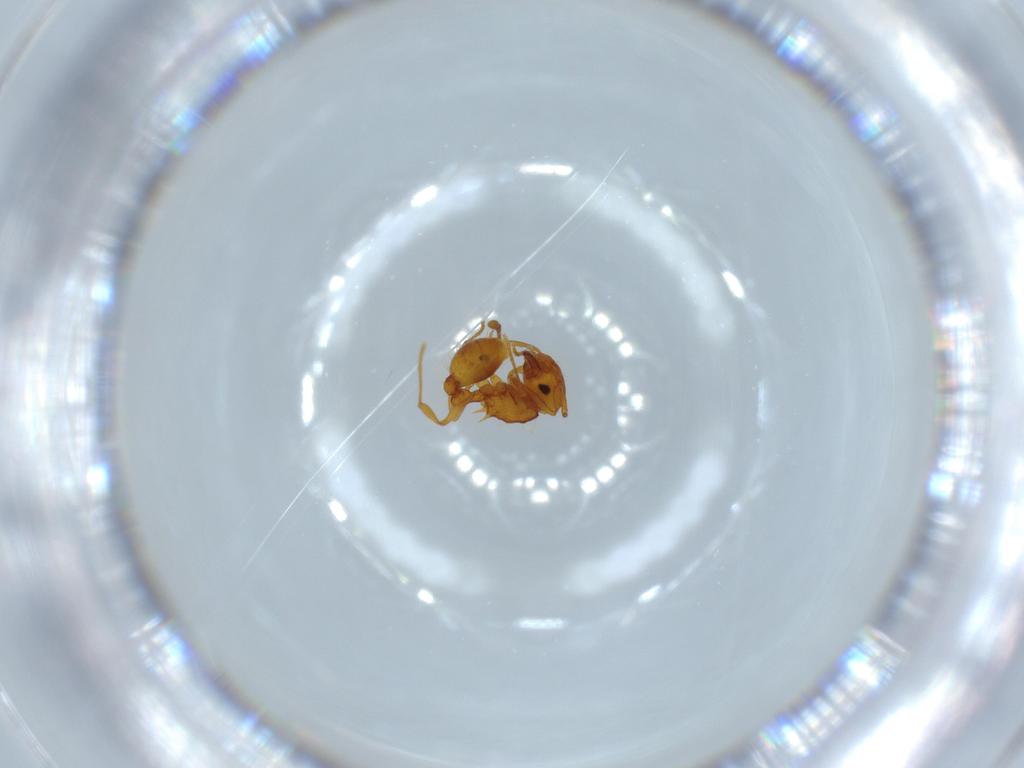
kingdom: Animalia
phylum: Arthropoda
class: Insecta
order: Hymenoptera
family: Formicidae
